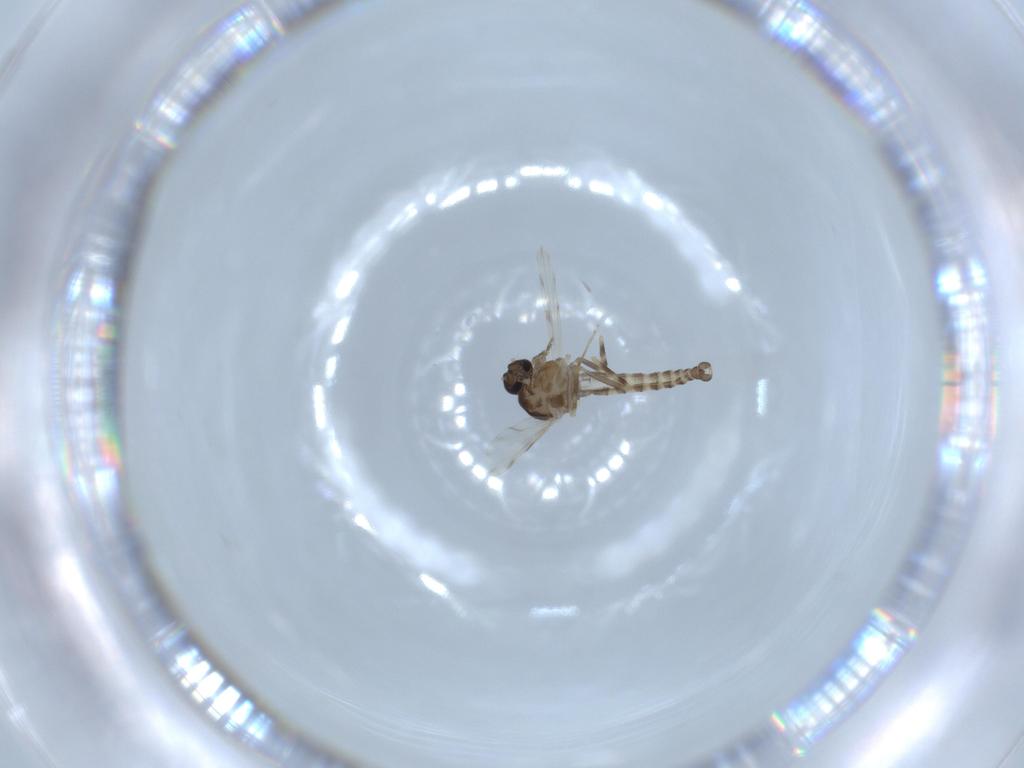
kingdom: Animalia
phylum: Arthropoda
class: Insecta
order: Diptera
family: Ceratopogonidae
